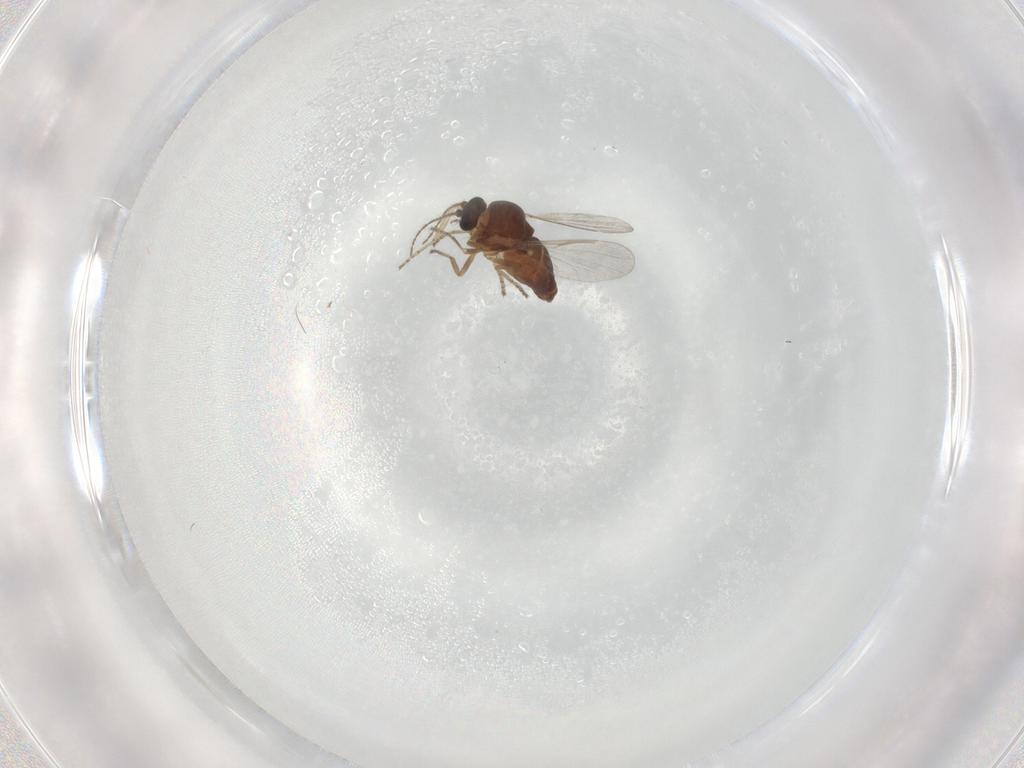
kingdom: Animalia
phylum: Arthropoda
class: Insecta
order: Diptera
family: Ceratopogonidae
